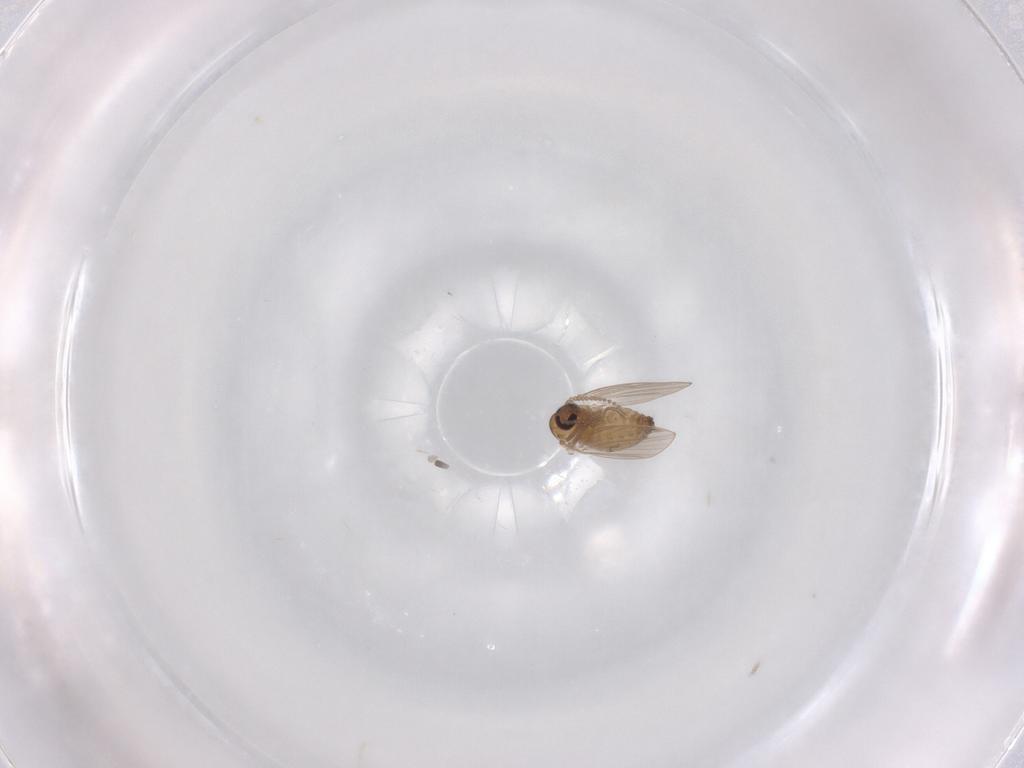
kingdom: Animalia
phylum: Arthropoda
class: Insecta
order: Diptera
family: Psychodidae
